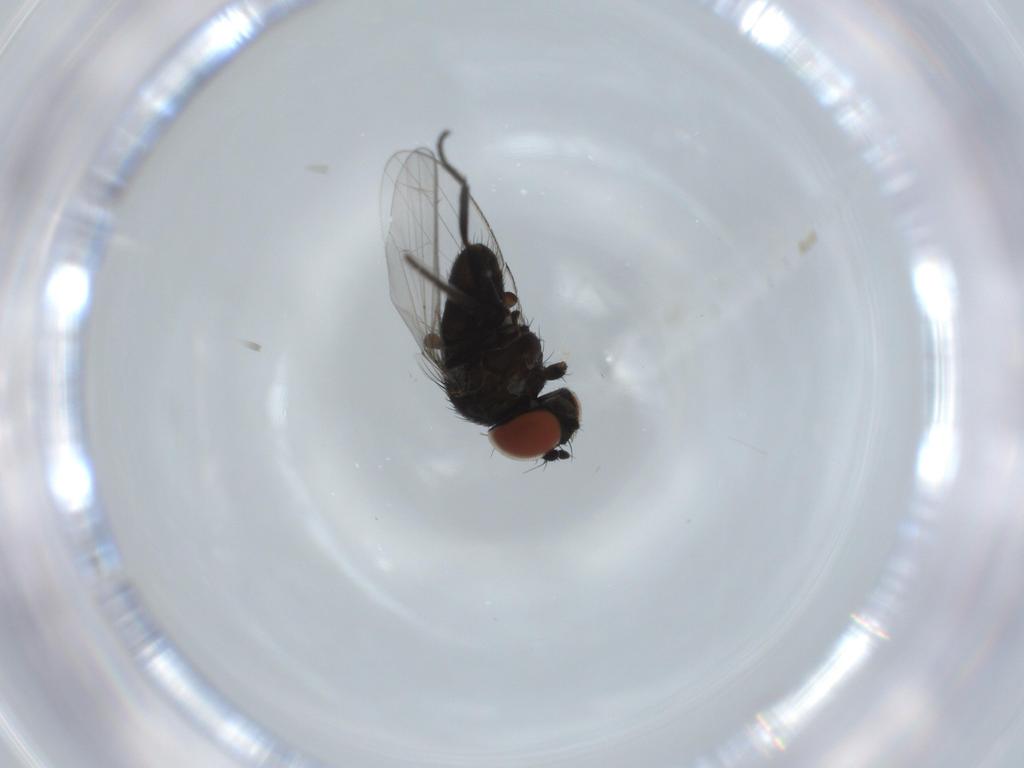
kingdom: Animalia
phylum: Arthropoda
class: Insecta
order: Diptera
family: Sciaridae
